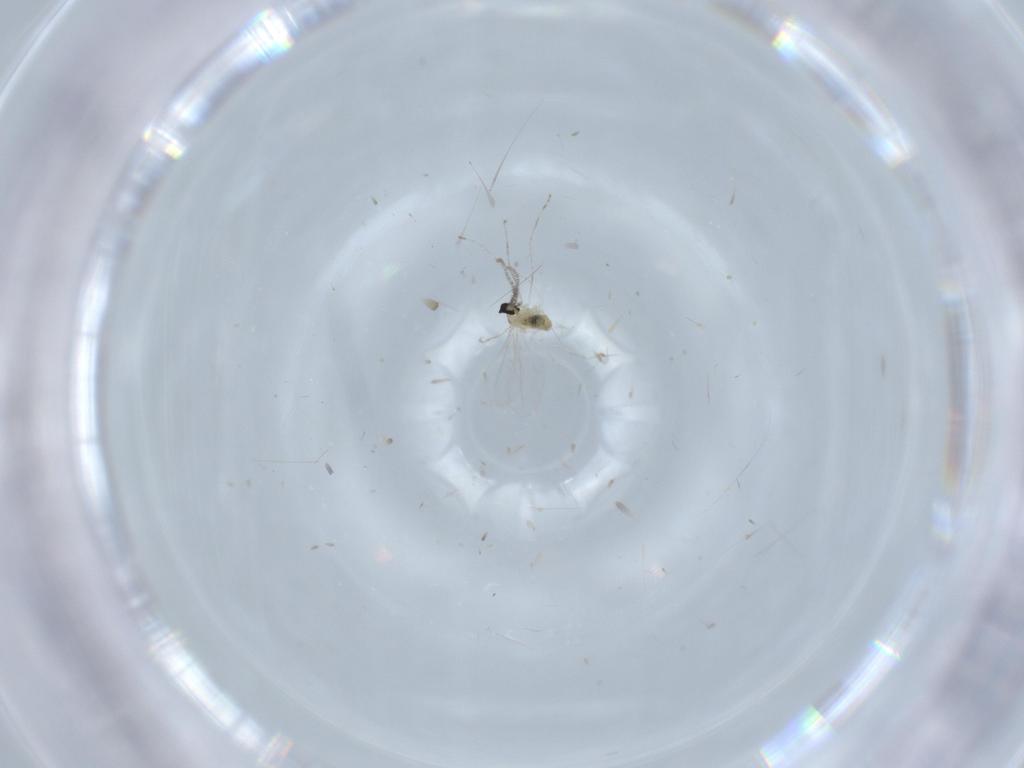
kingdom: Animalia
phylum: Arthropoda
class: Insecta
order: Diptera
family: Cecidomyiidae
